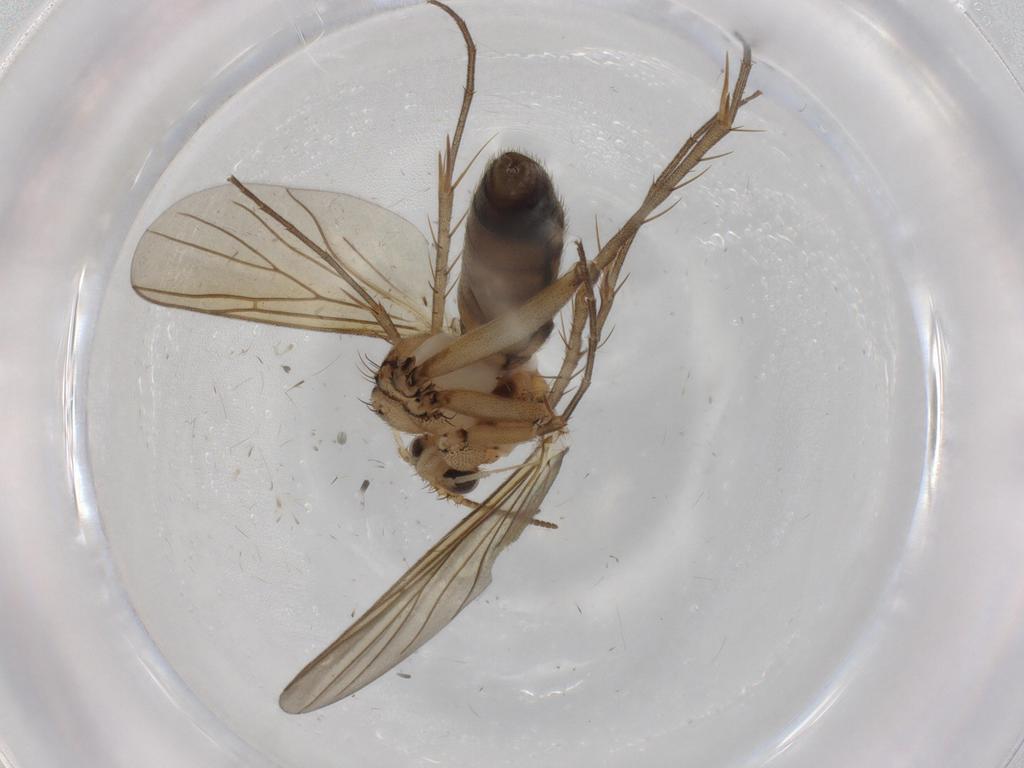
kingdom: Animalia
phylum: Arthropoda
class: Insecta
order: Diptera
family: Mycetophilidae
